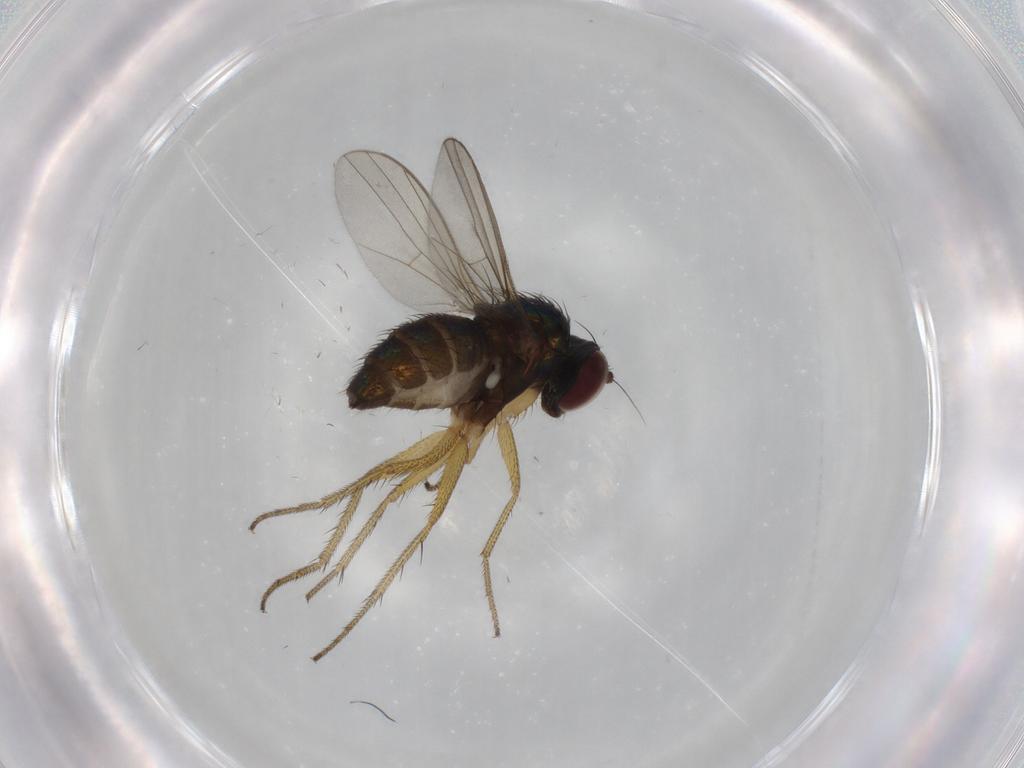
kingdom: Animalia
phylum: Arthropoda
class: Insecta
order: Diptera
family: Dolichopodidae
